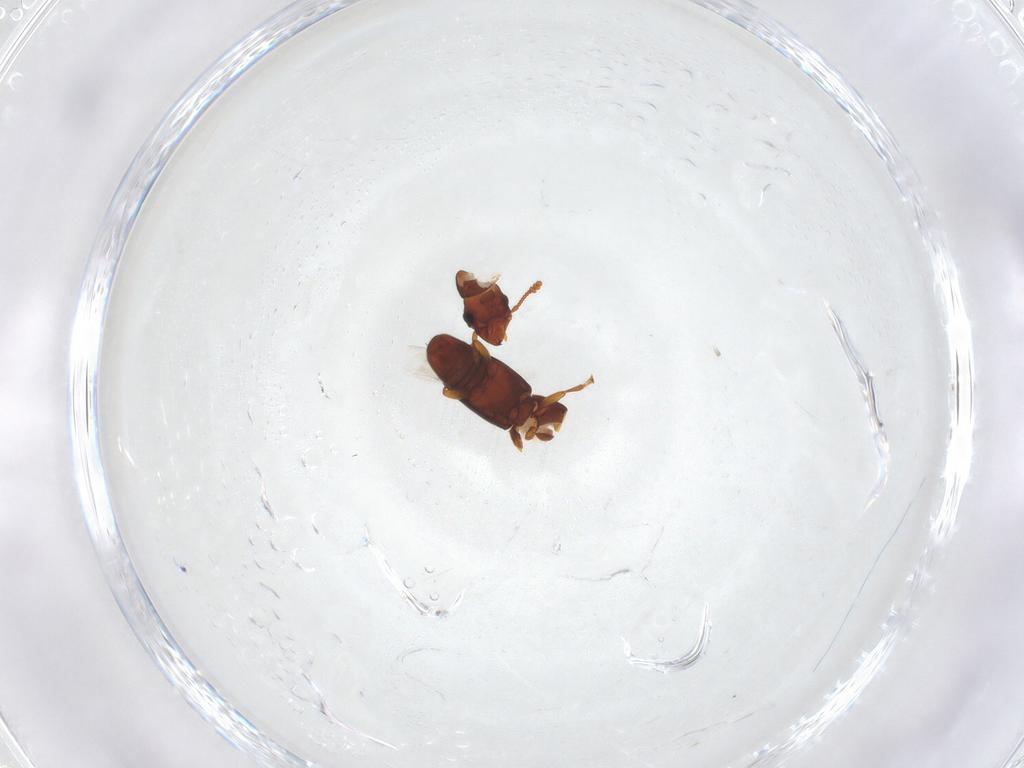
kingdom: Animalia
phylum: Arthropoda
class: Insecta
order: Coleoptera
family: Smicripidae
